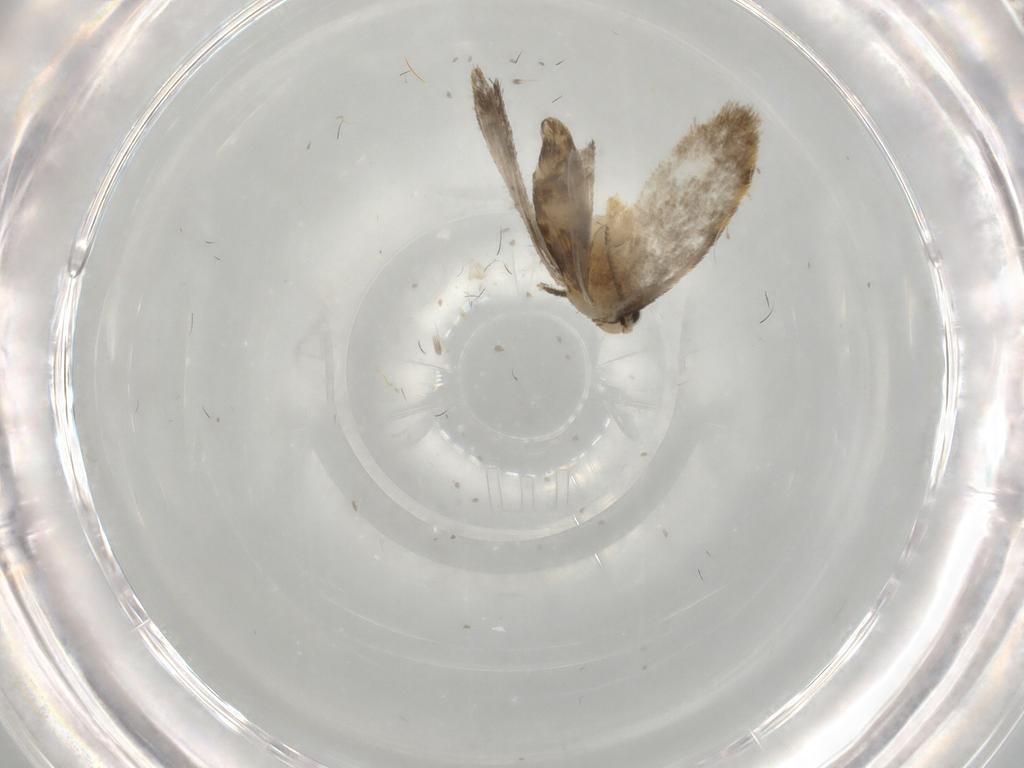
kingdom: Animalia
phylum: Arthropoda
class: Insecta
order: Lepidoptera
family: Psychidae
